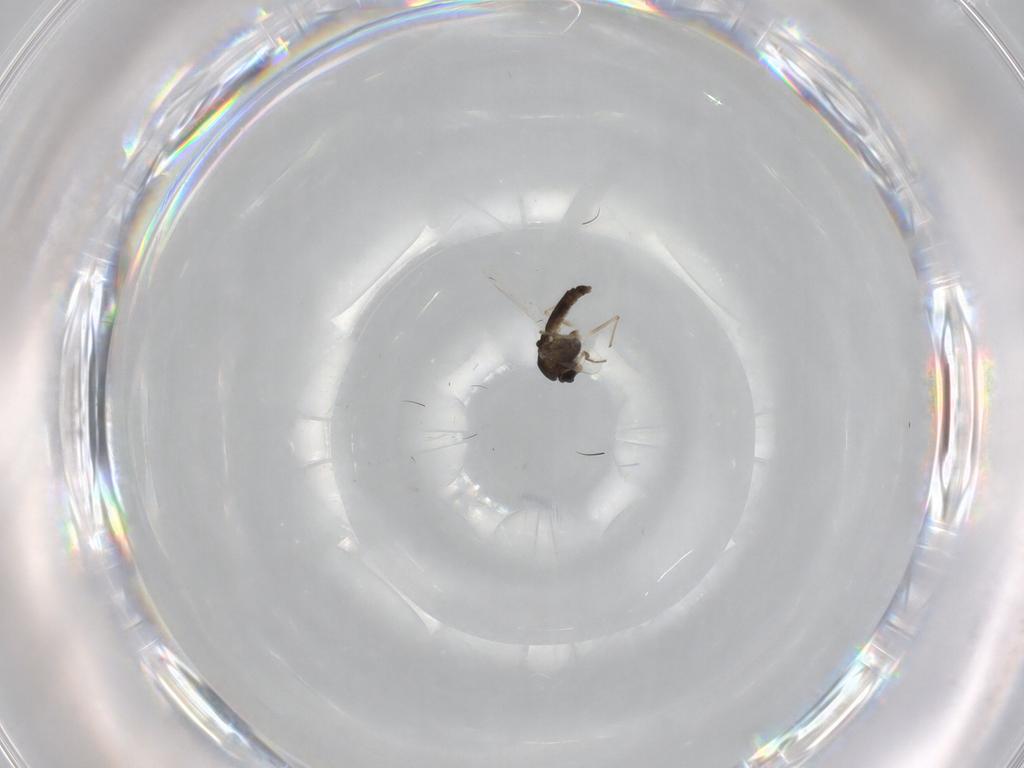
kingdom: Animalia
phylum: Arthropoda
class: Insecta
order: Diptera
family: Chironomidae
